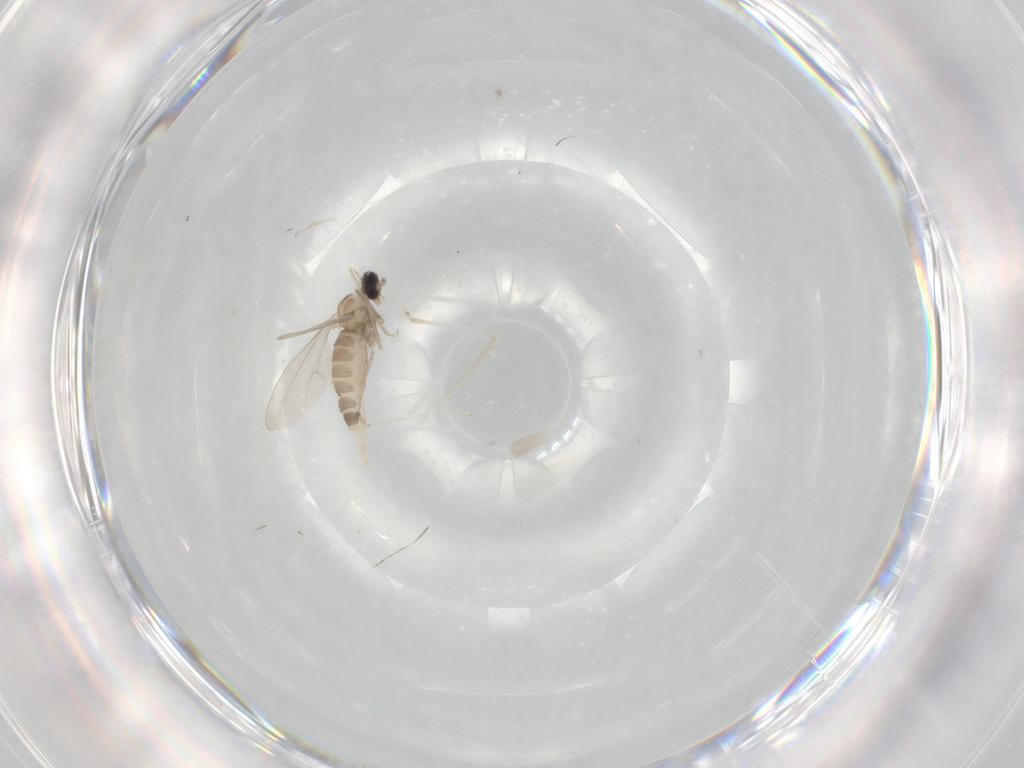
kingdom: Animalia
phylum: Arthropoda
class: Insecta
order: Diptera
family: Cecidomyiidae
